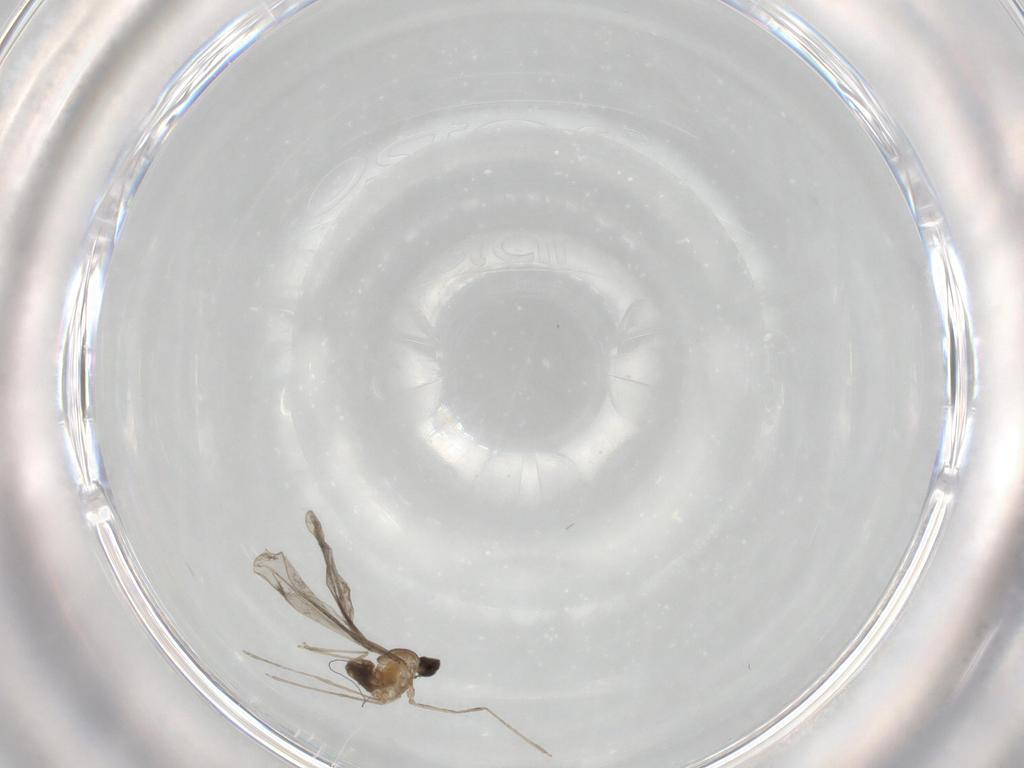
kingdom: Animalia
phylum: Arthropoda
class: Insecta
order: Diptera
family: Cecidomyiidae
